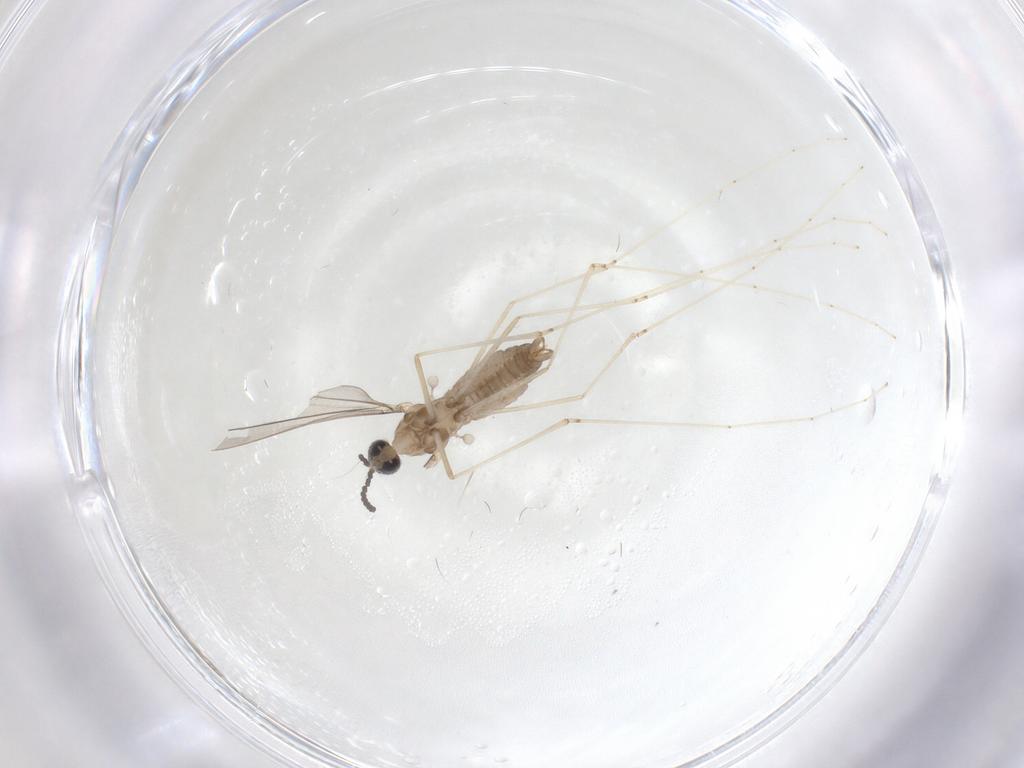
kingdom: Animalia
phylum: Arthropoda
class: Insecta
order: Diptera
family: Cecidomyiidae
